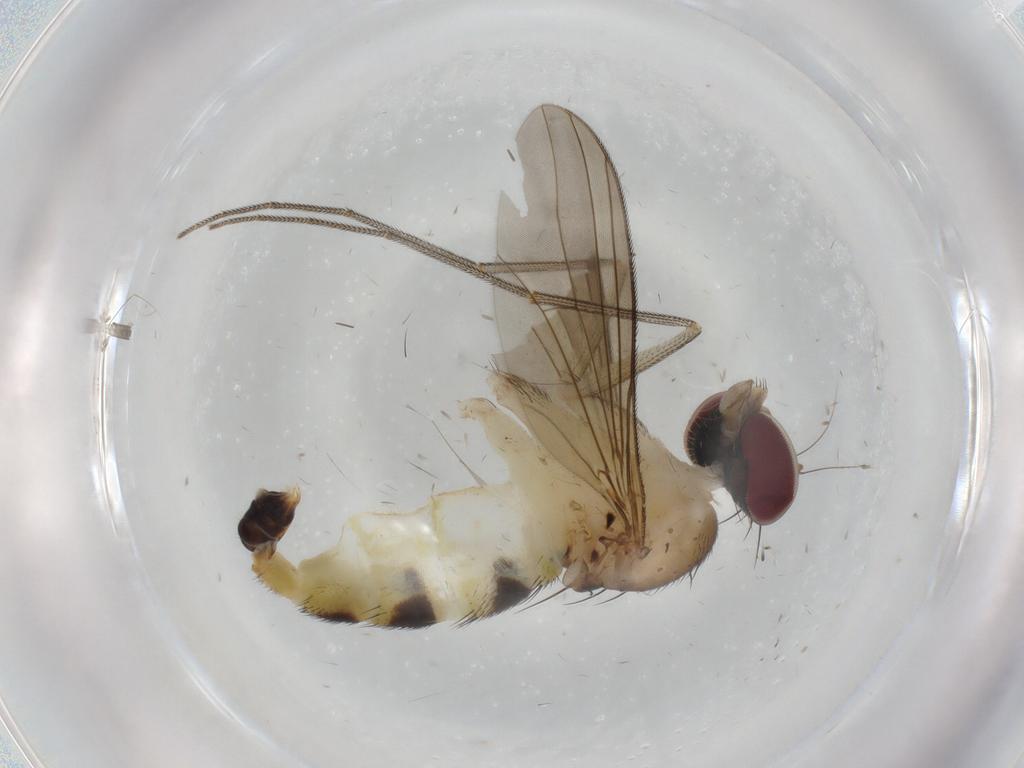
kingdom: Animalia
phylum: Arthropoda
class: Insecta
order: Diptera
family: Dolichopodidae
